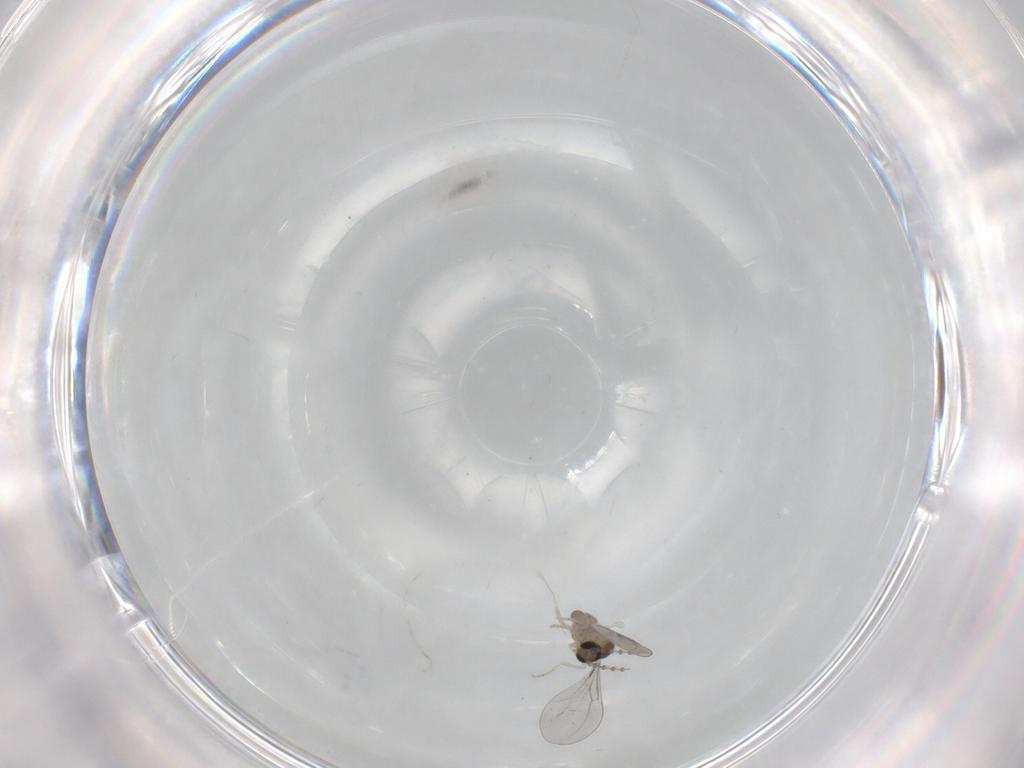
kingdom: Animalia
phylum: Arthropoda
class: Insecta
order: Diptera
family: Cecidomyiidae
